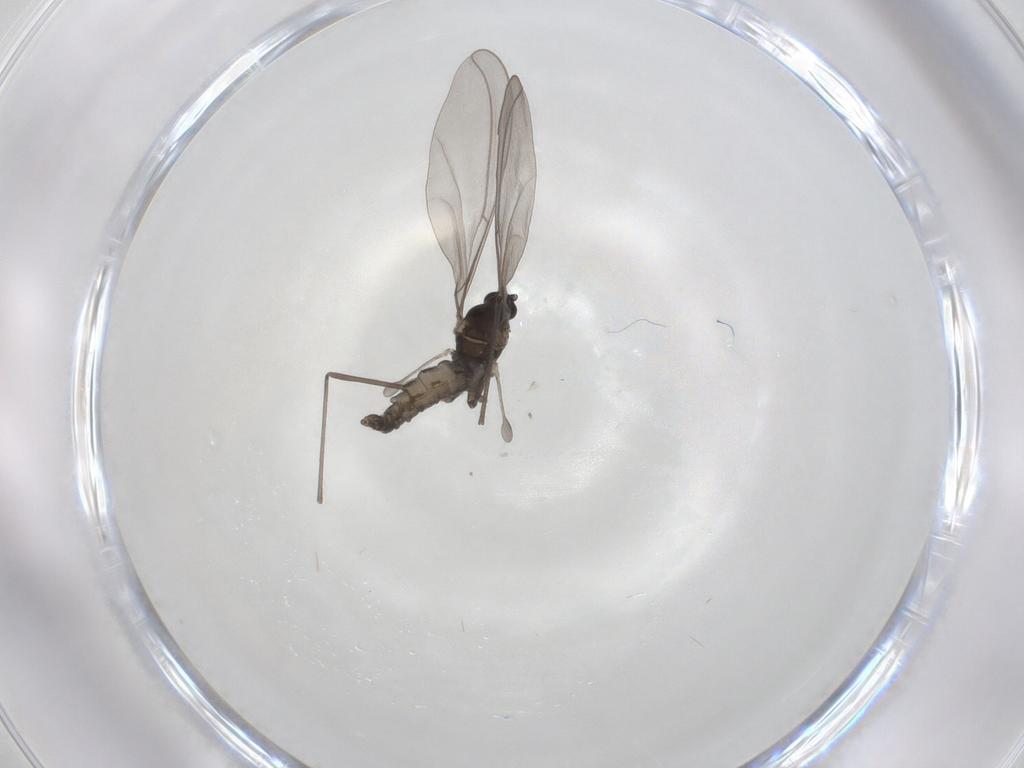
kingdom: Animalia
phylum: Arthropoda
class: Insecta
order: Diptera
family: Cecidomyiidae
